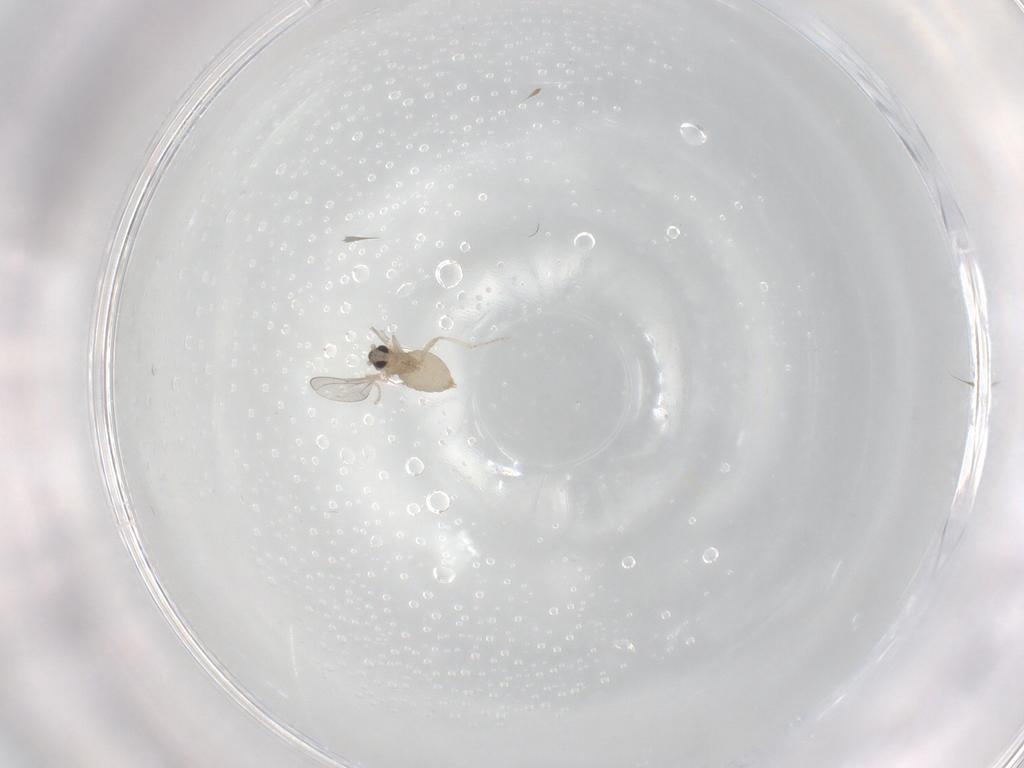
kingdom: Animalia
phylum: Arthropoda
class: Insecta
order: Diptera
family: Cecidomyiidae
